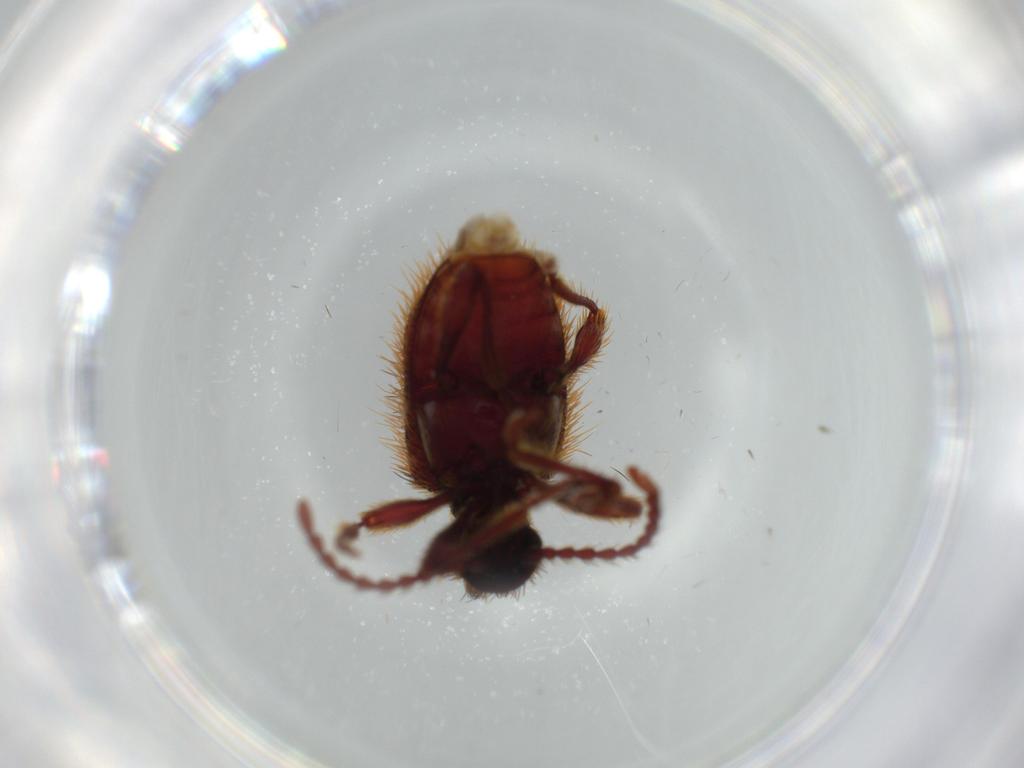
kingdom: Animalia
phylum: Arthropoda
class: Insecta
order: Coleoptera
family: Ptinidae
